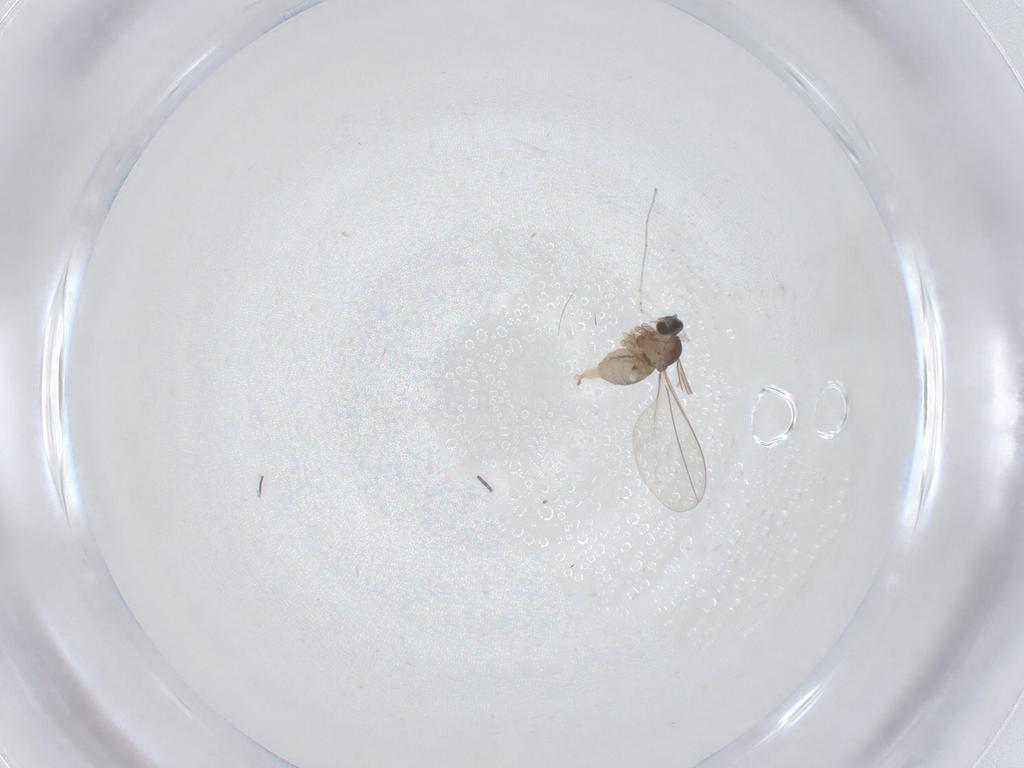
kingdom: Animalia
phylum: Arthropoda
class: Insecta
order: Diptera
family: Cecidomyiidae
